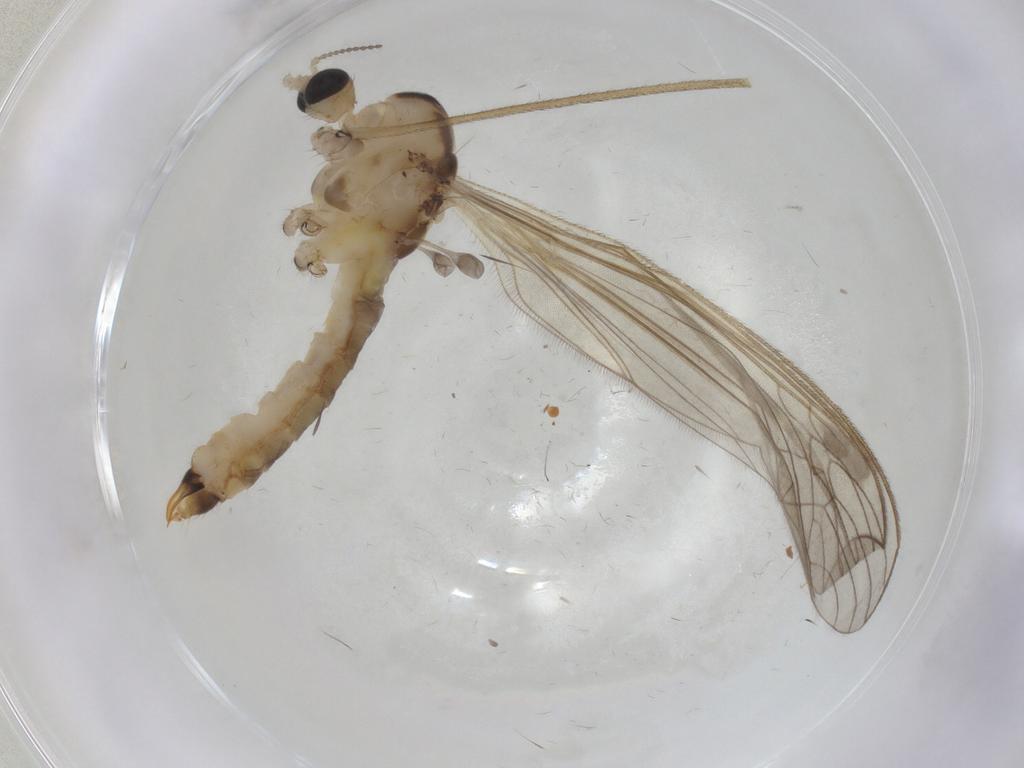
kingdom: Animalia
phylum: Arthropoda
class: Insecta
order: Diptera
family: Limoniidae
